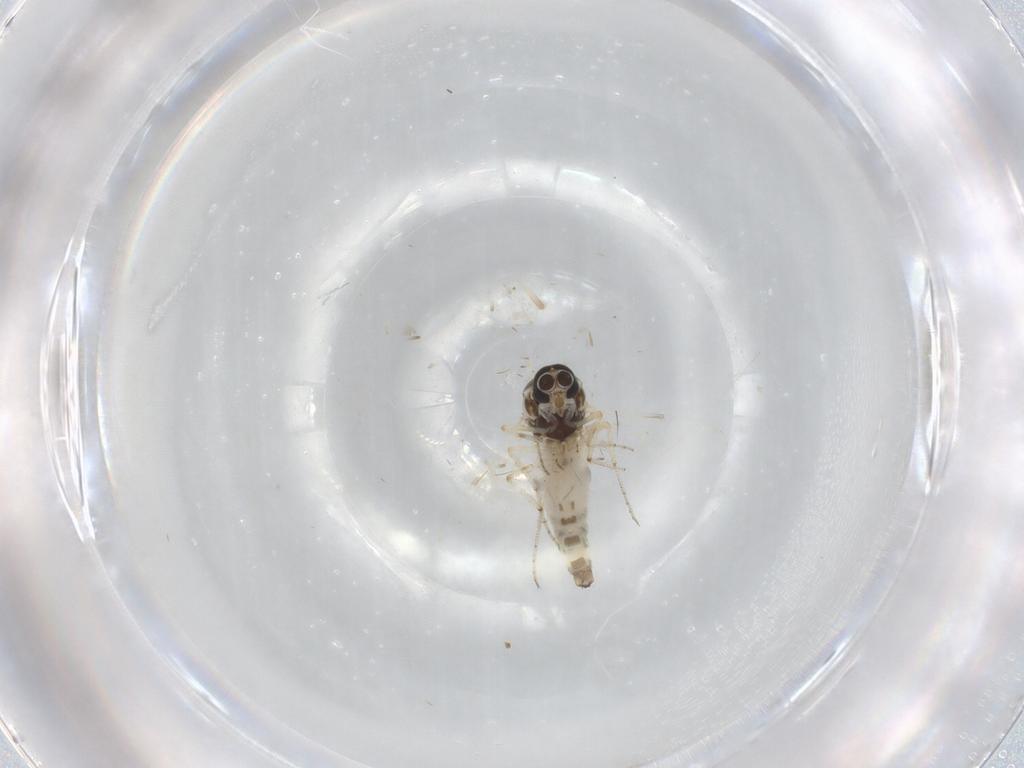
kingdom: Animalia
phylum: Arthropoda
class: Insecta
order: Diptera
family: Ceratopogonidae
